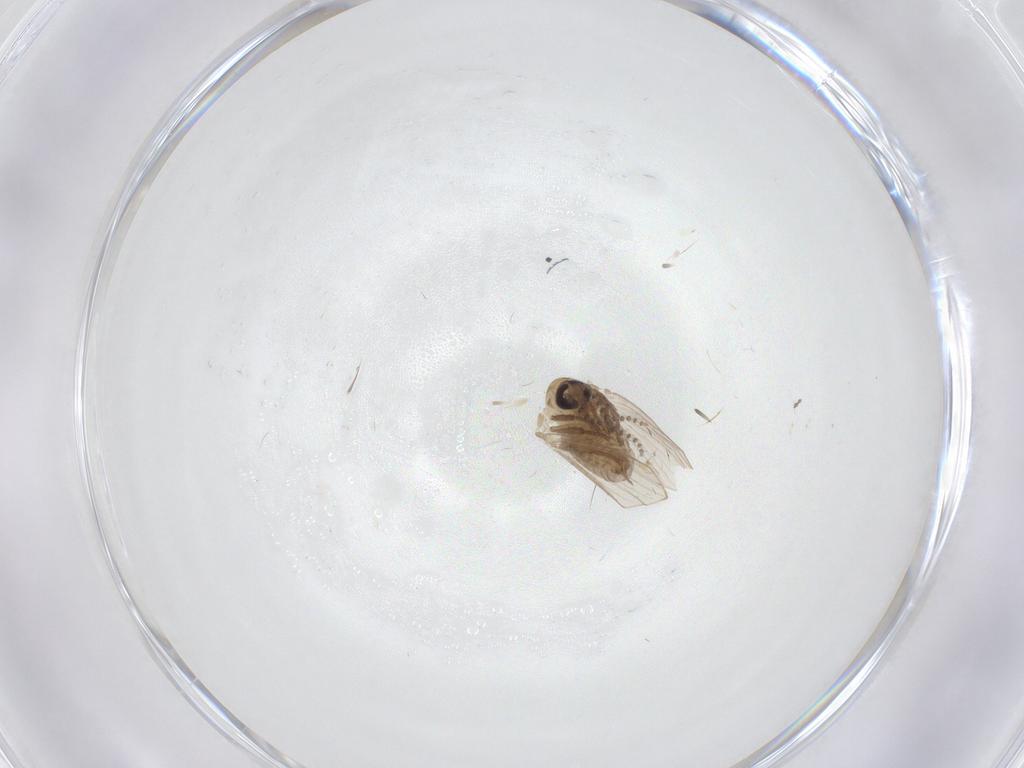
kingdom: Animalia
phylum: Arthropoda
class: Insecta
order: Diptera
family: Psychodidae
